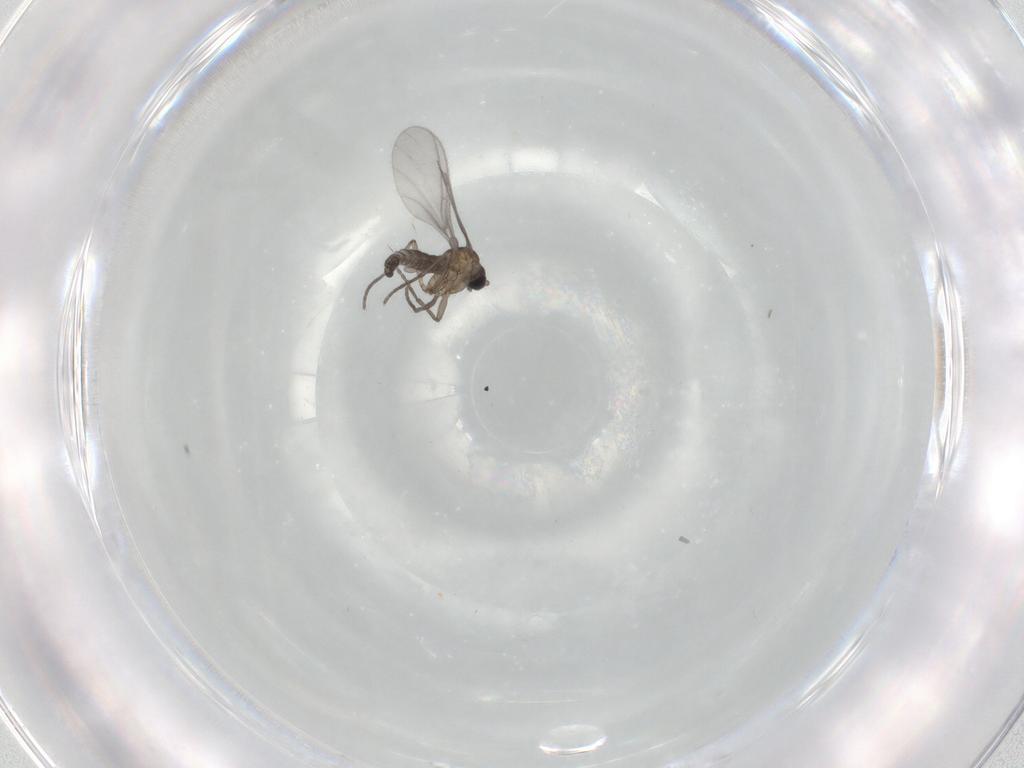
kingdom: Animalia
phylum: Arthropoda
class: Insecta
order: Diptera
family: Sciaridae
